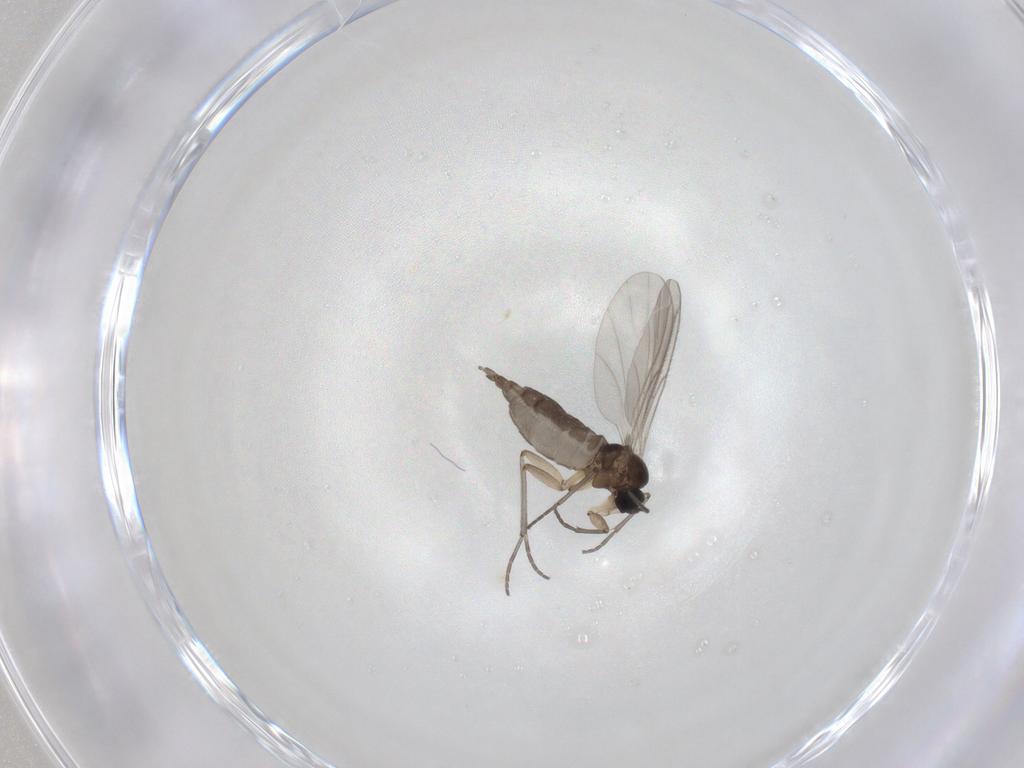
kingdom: Animalia
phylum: Arthropoda
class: Insecta
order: Diptera
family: Sciaridae
